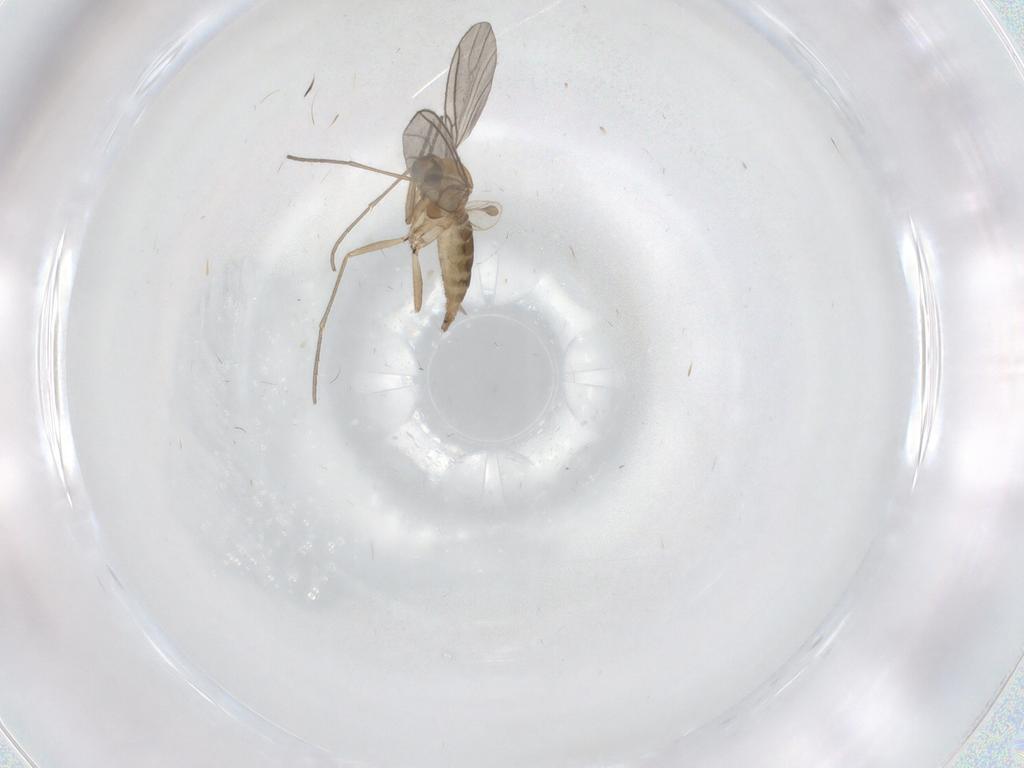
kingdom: Animalia
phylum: Arthropoda
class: Insecta
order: Diptera
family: Sciaridae
